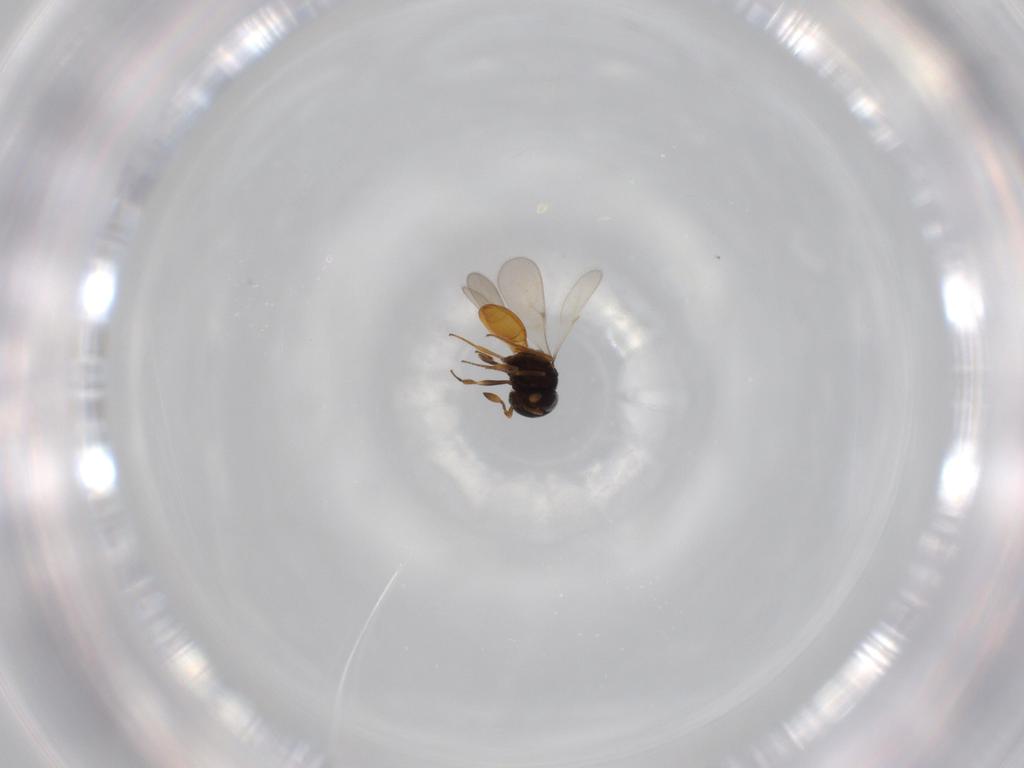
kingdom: Animalia
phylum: Arthropoda
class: Insecta
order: Hymenoptera
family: Scelionidae
